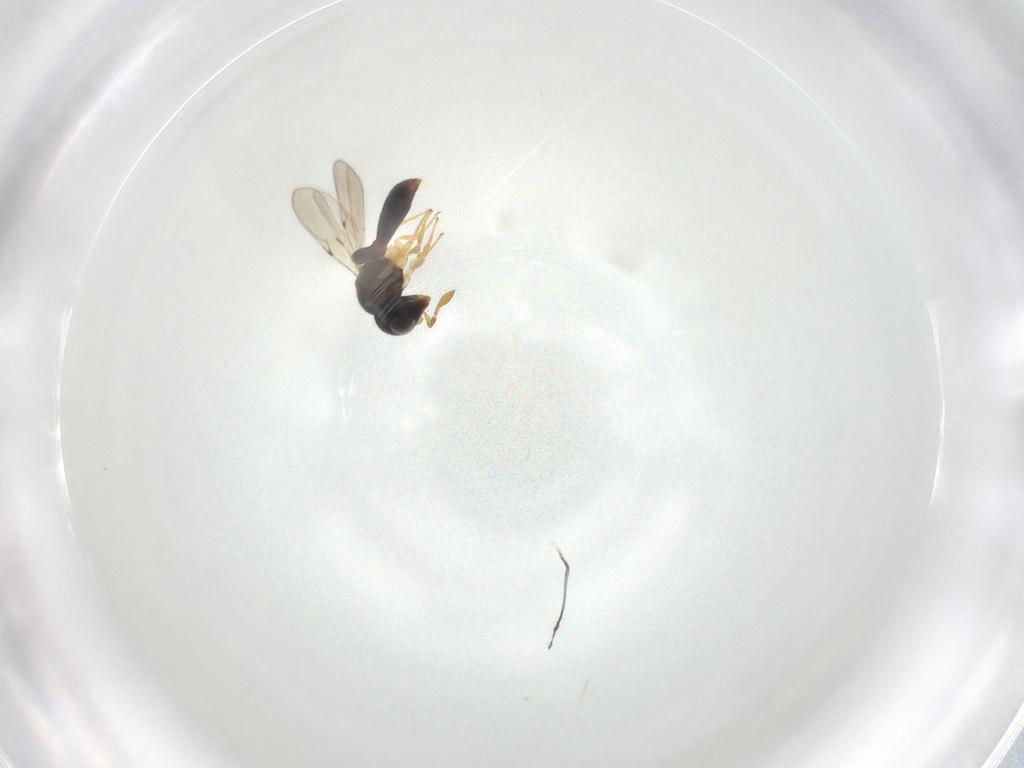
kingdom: Animalia
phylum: Arthropoda
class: Insecta
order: Hymenoptera
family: Scelionidae
